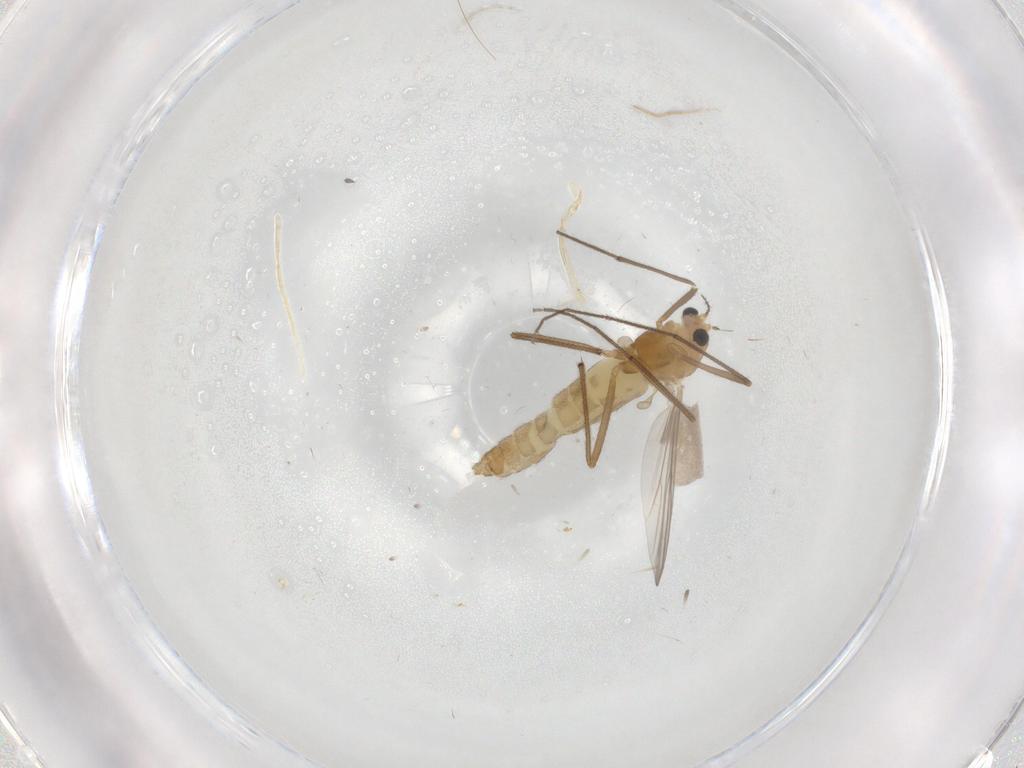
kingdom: Animalia
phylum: Arthropoda
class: Insecta
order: Diptera
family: Chironomidae
